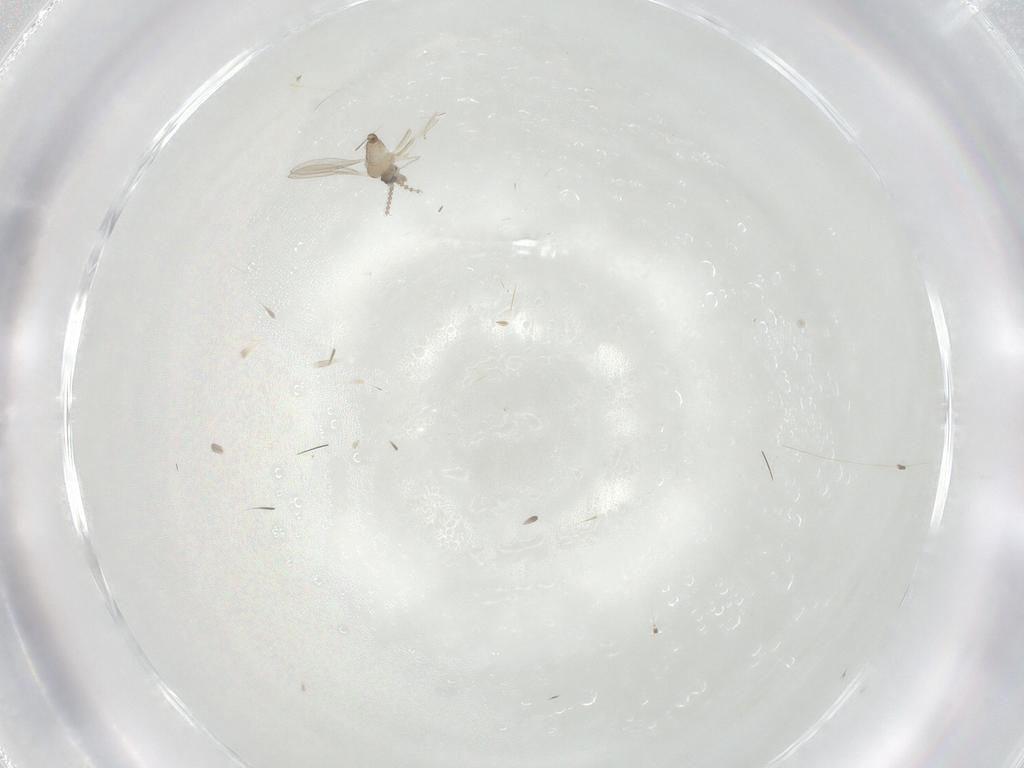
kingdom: Animalia
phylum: Arthropoda
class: Insecta
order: Diptera
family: Cecidomyiidae
